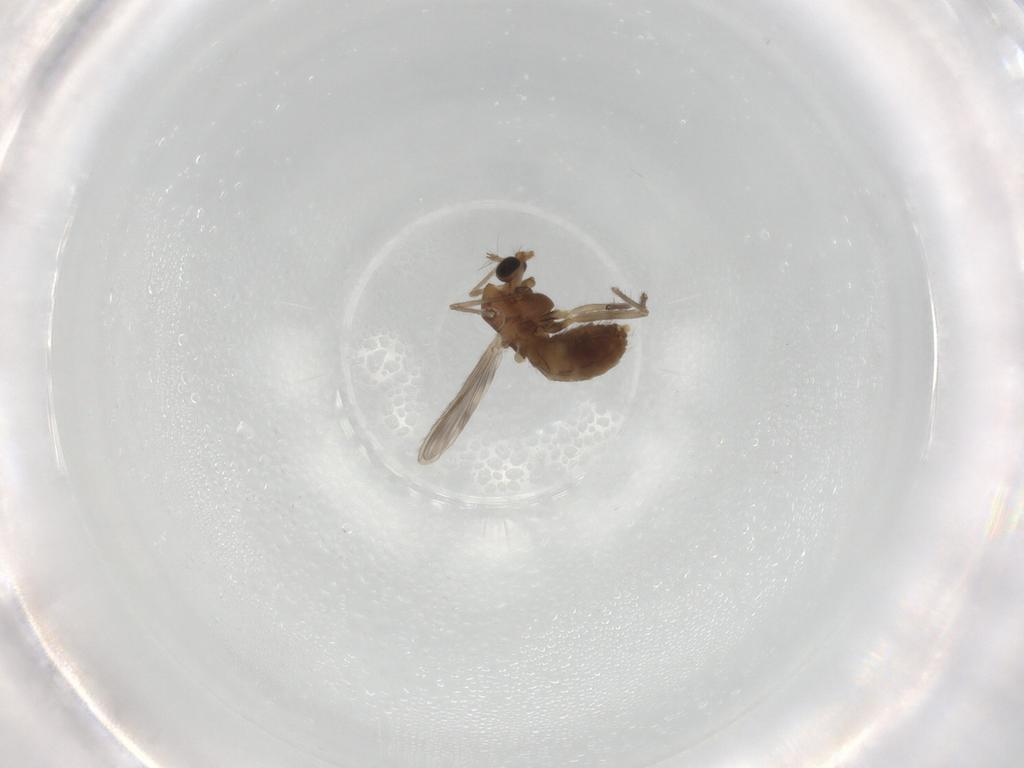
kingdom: Animalia
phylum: Arthropoda
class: Insecta
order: Diptera
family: Chironomidae
